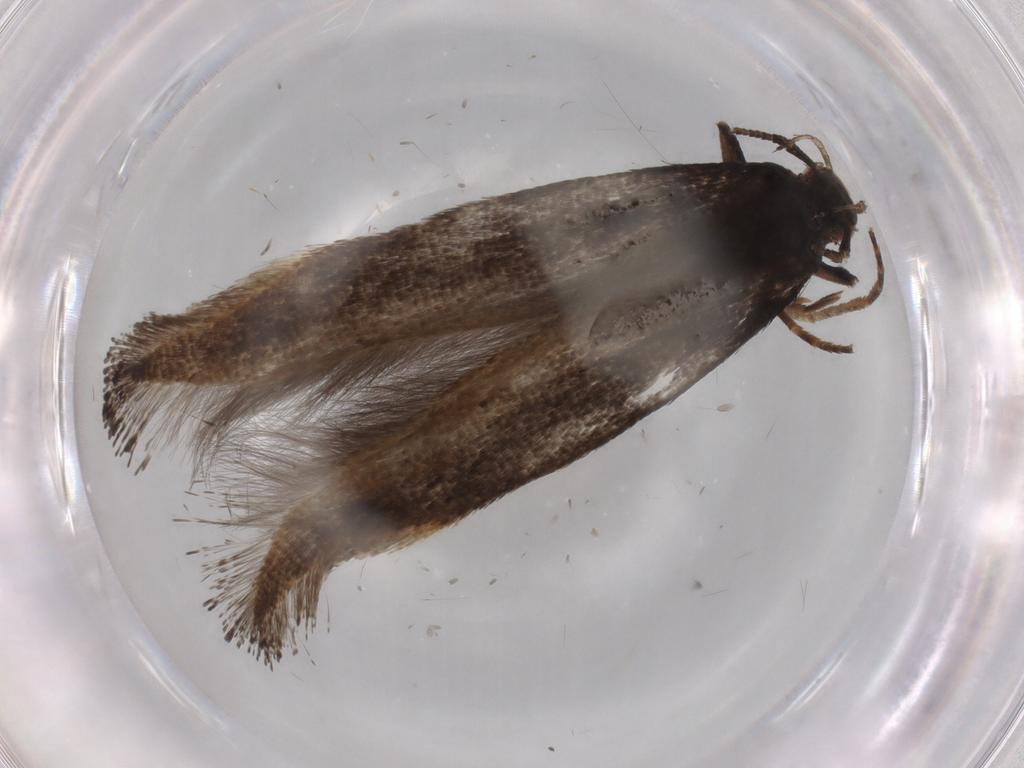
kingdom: Animalia
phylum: Arthropoda
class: Insecta
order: Lepidoptera
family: Momphidae
